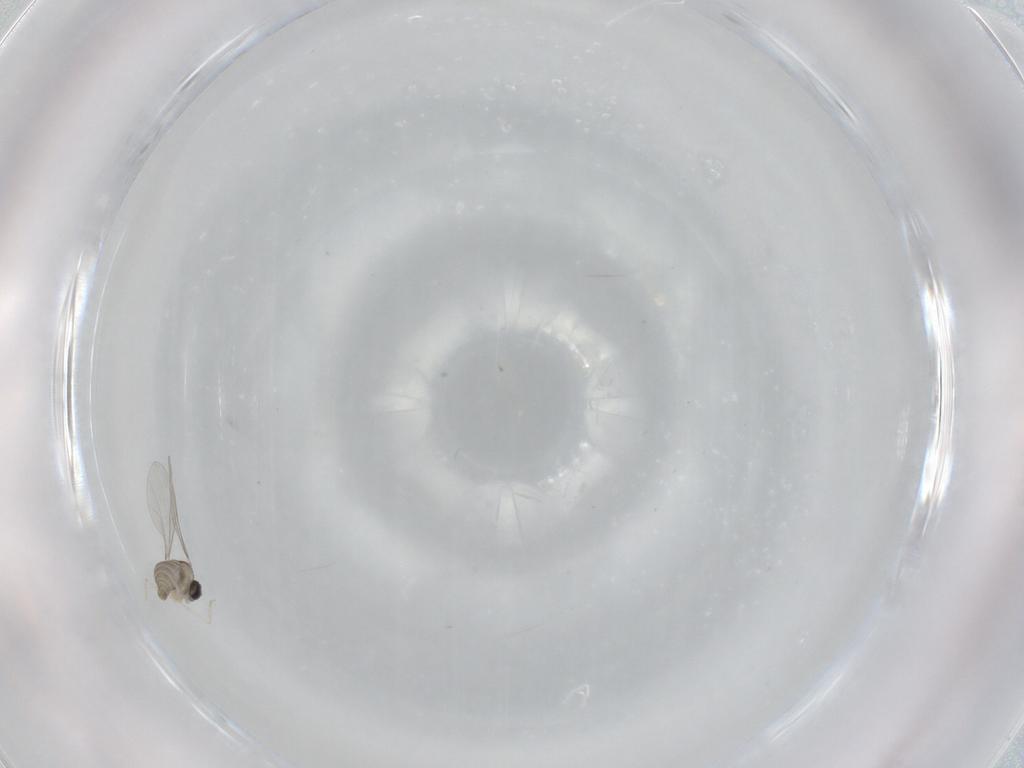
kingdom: Animalia
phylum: Arthropoda
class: Insecta
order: Diptera
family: Cecidomyiidae
